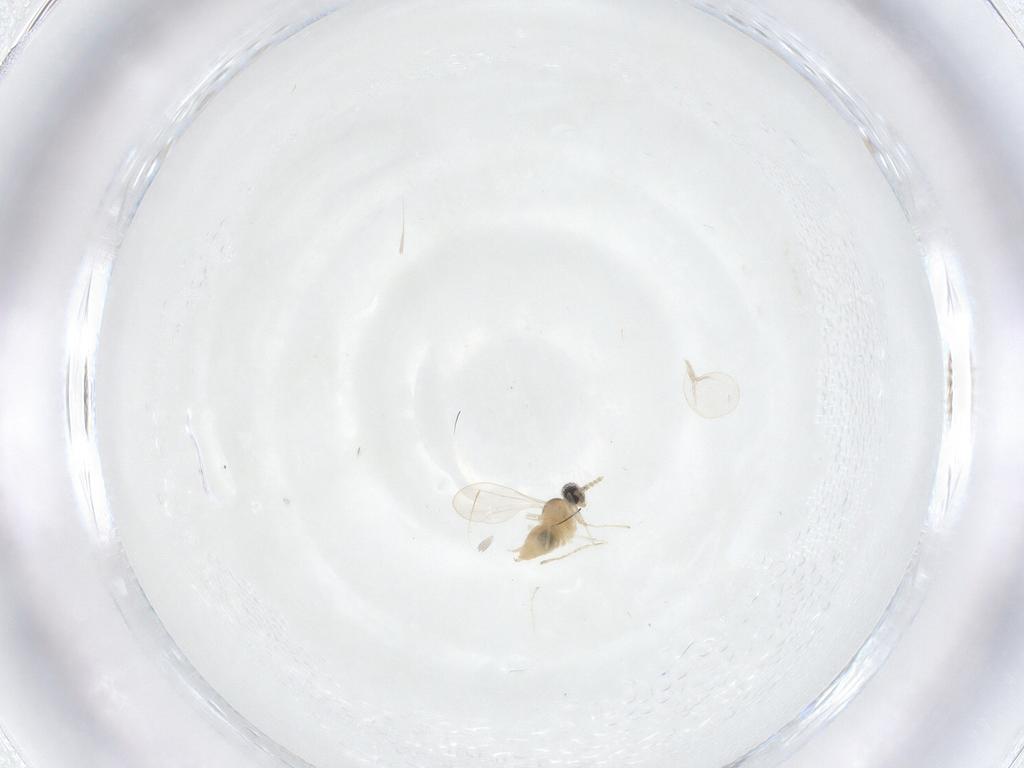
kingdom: Animalia
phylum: Arthropoda
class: Insecta
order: Diptera
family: Cecidomyiidae
